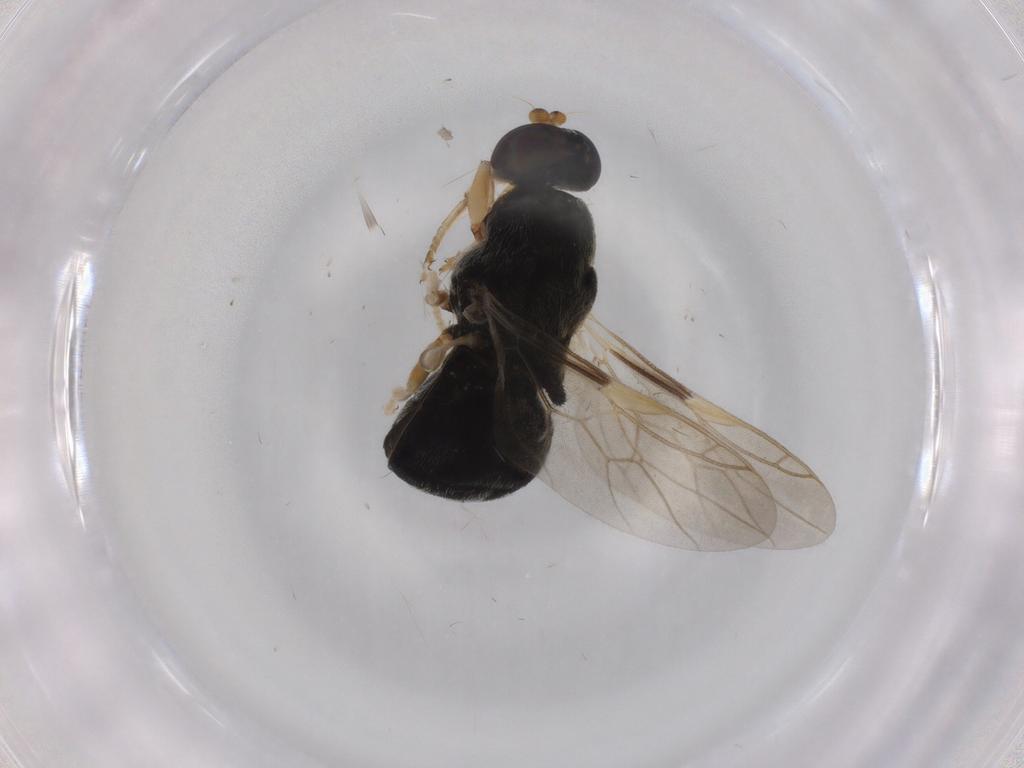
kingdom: Animalia
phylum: Arthropoda
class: Insecta
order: Diptera
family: Stratiomyidae
